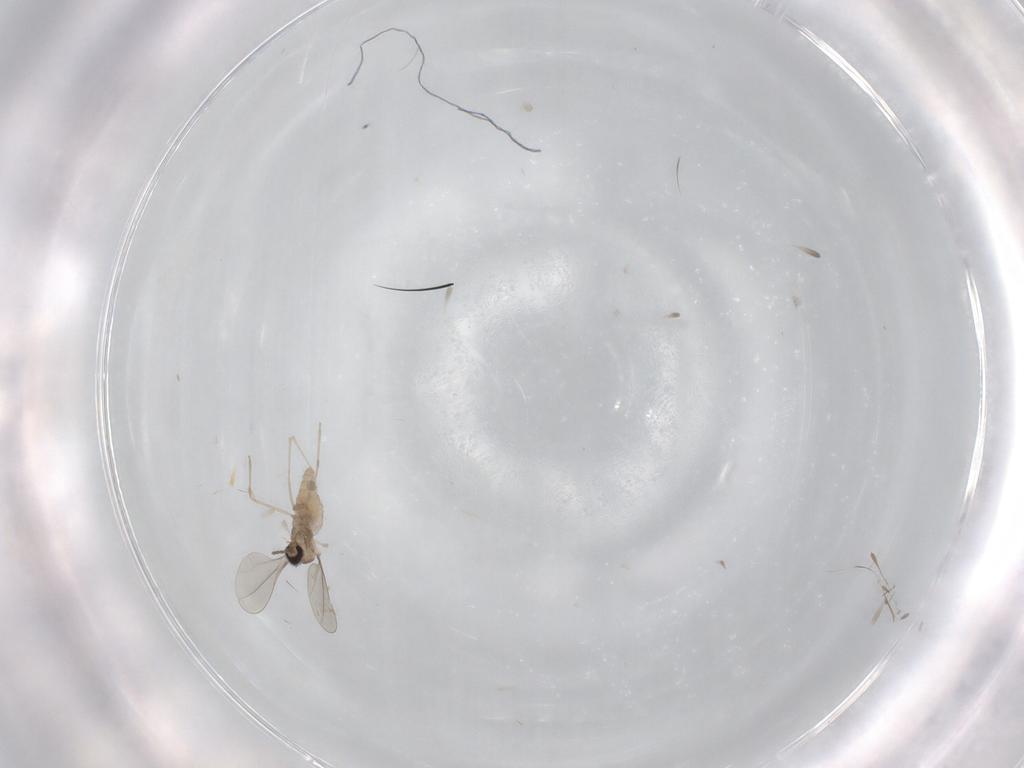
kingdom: Animalia
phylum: Arthropoda
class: Insecta
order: Diptera
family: Cecidomyiidae
